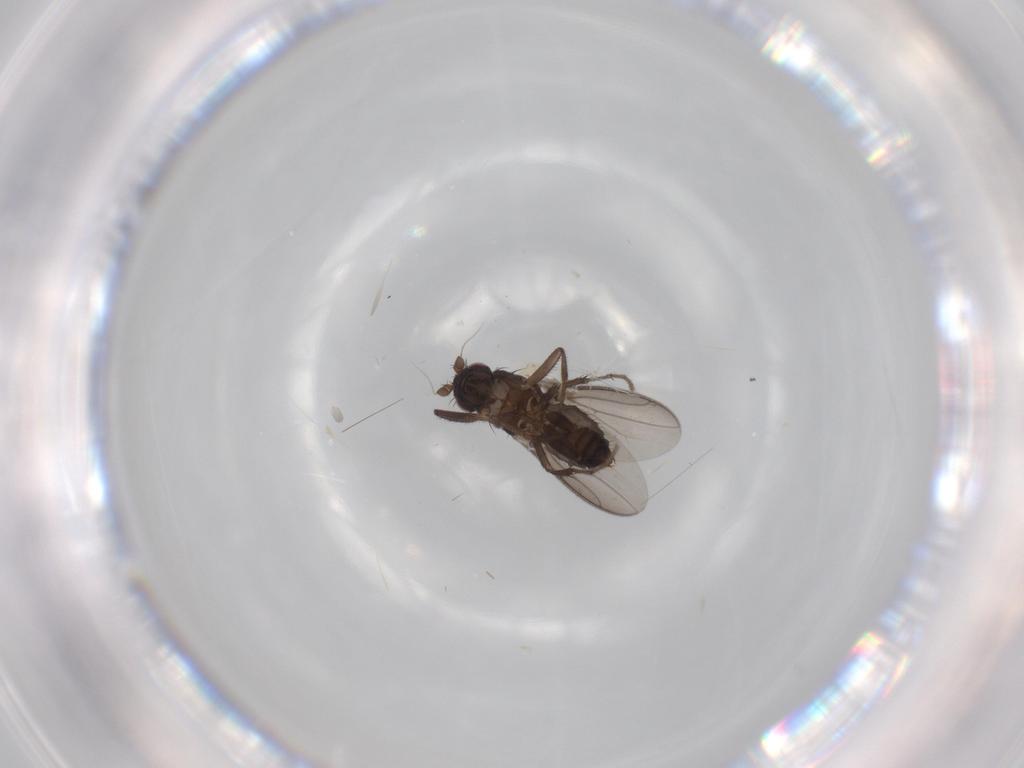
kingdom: Animalia
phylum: Arthropoda
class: Insecta
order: Diptera
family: Sphaeroceridae
